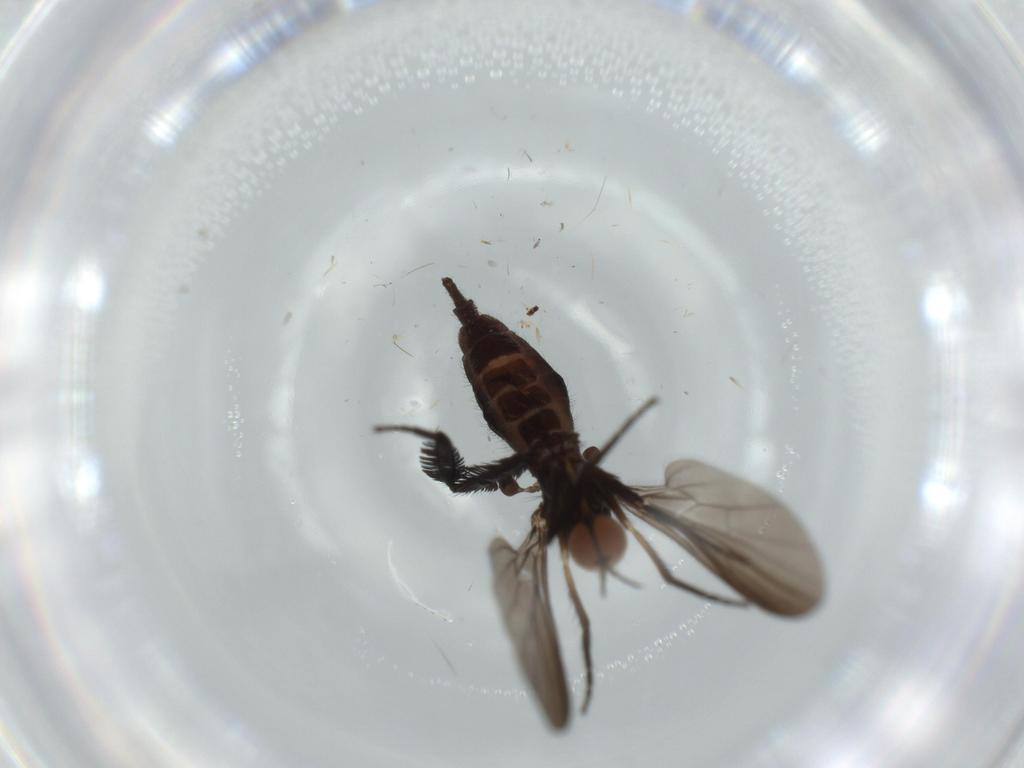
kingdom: Animalia
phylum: Arthropoda
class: Insecta
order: Diptera
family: Empididae
